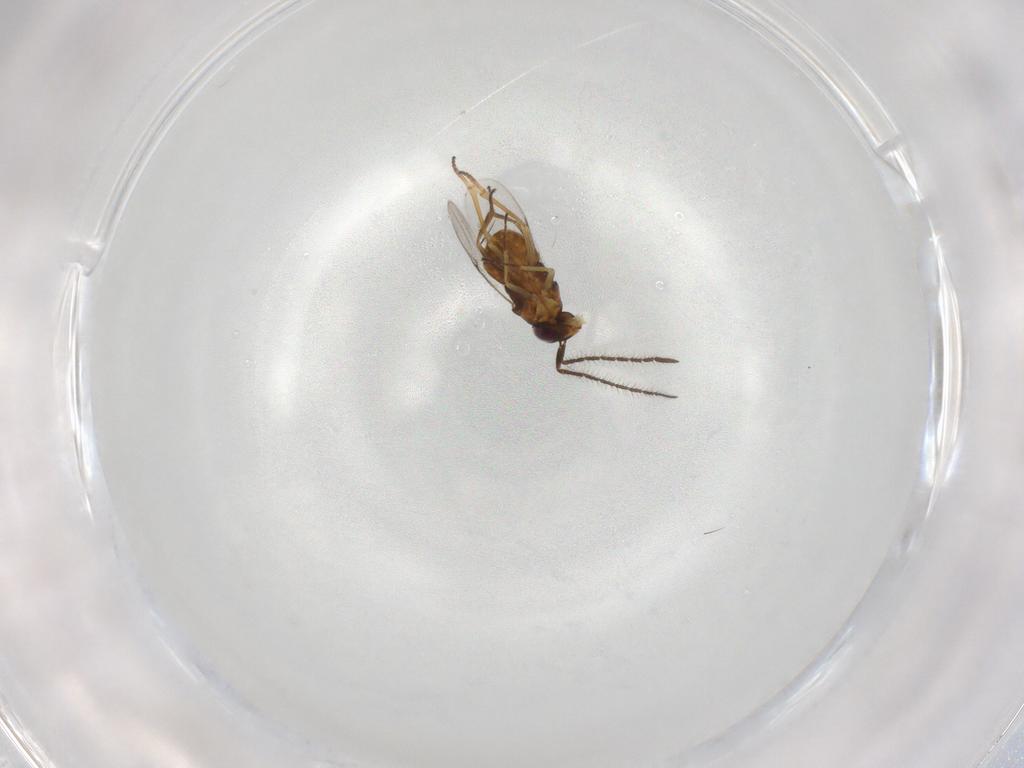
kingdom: Animalia
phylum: Arthropoda
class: Insecta
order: Hymenoptera
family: Encyrtidae
